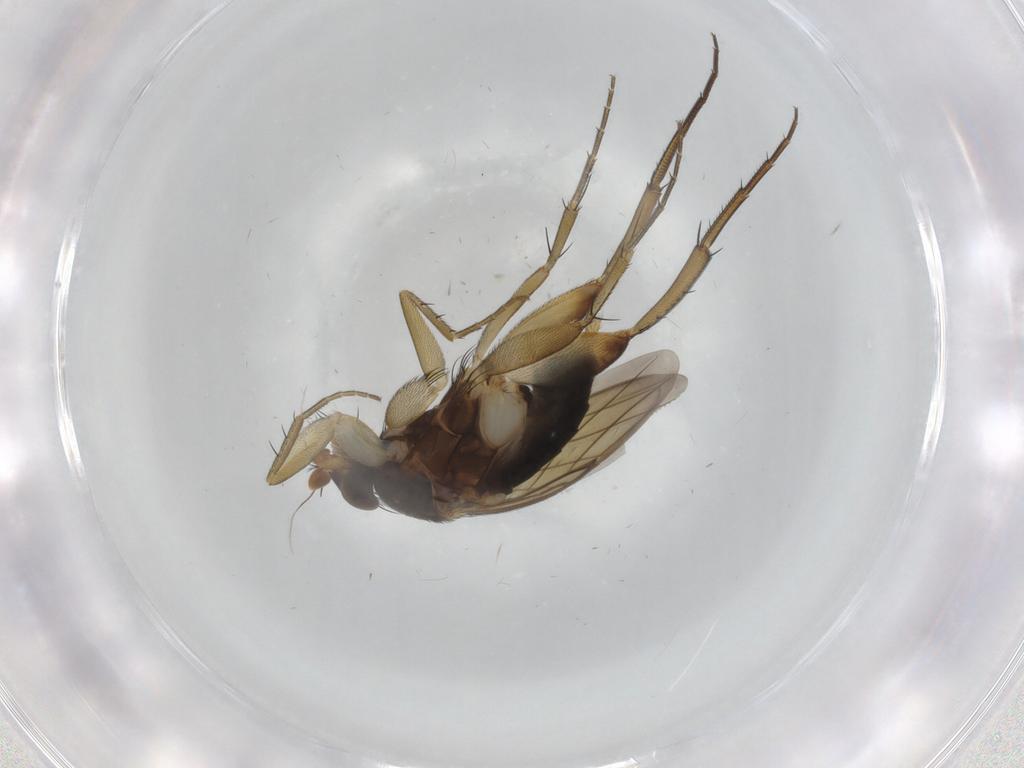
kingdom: Animalia
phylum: Arthropoda
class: Insecta
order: Diptera
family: Phoridae
